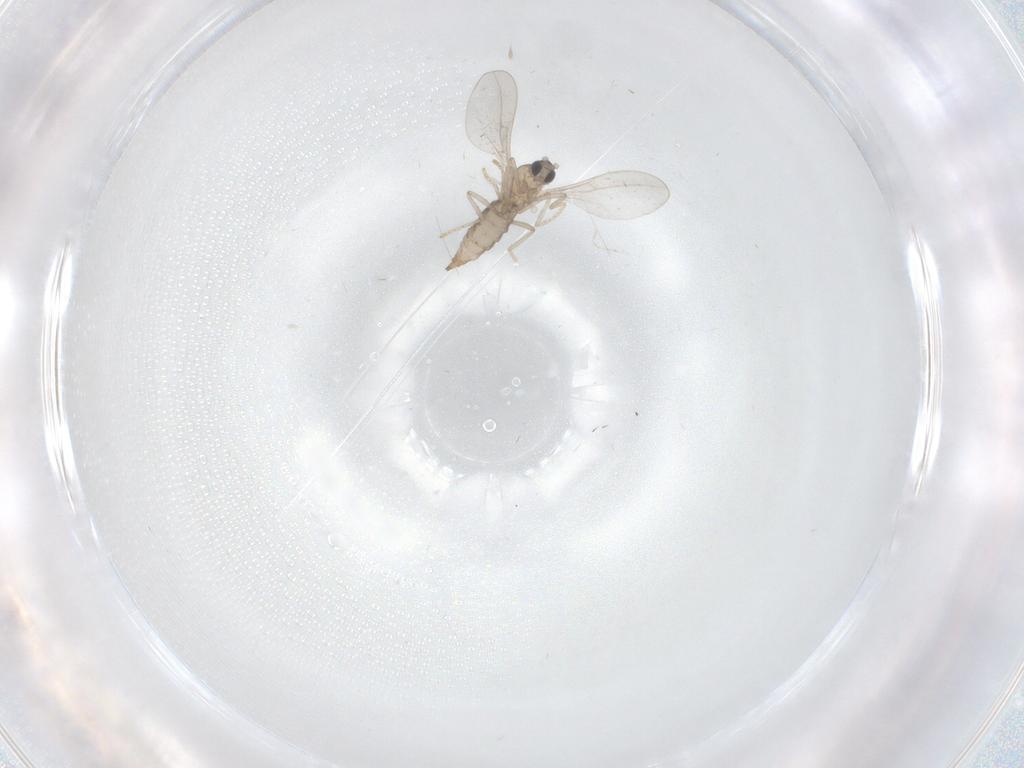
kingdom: Animalia
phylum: Arthropoda
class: Insecta
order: Diptera
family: Cecidomyiidae
